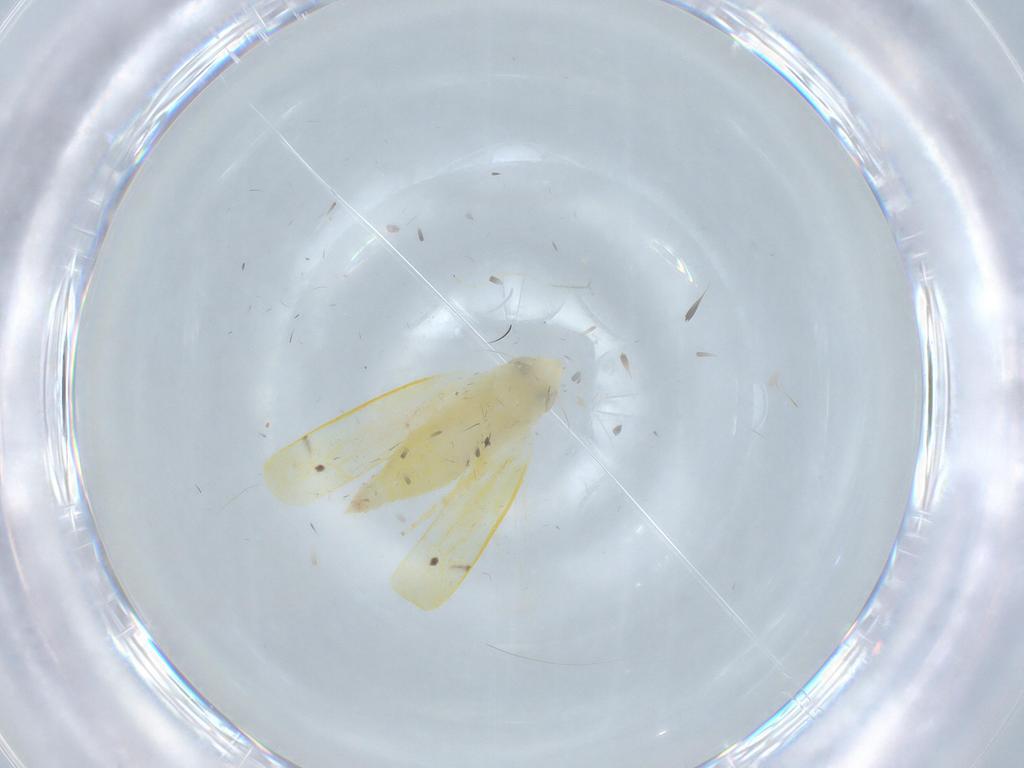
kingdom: Animalia
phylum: Arthropoda
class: Insecta
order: Hemiptera
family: Cicadellidae
